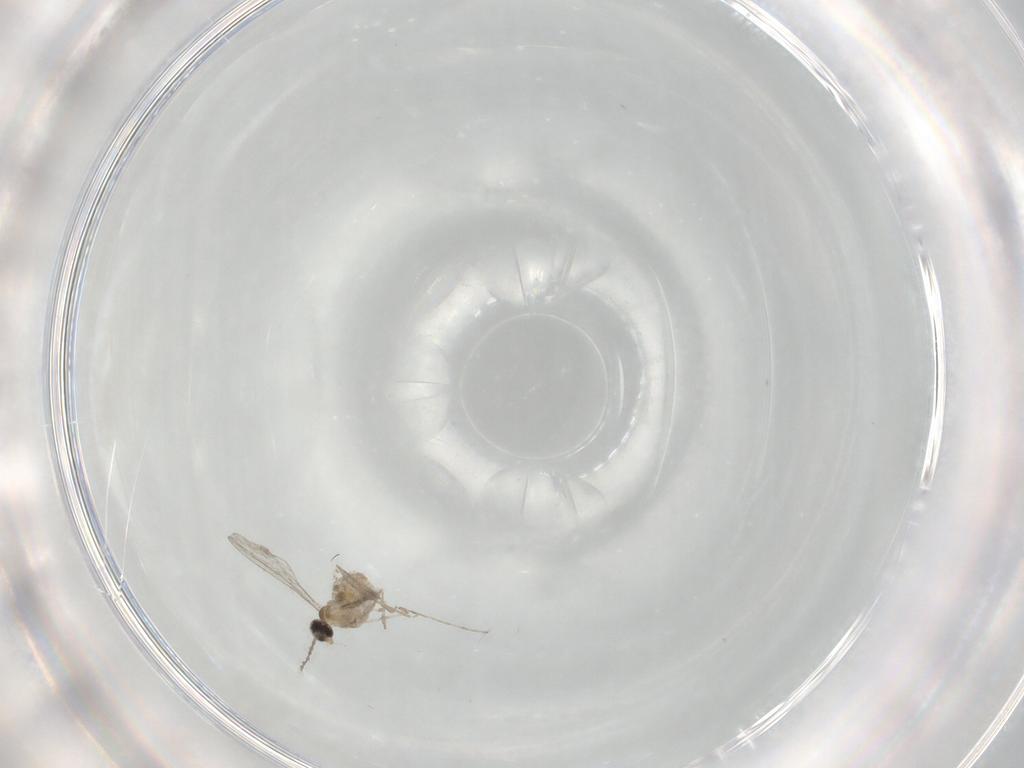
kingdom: Animalia
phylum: Arthropoda
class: Insecta
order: Diptera
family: Cecidomyiidae
